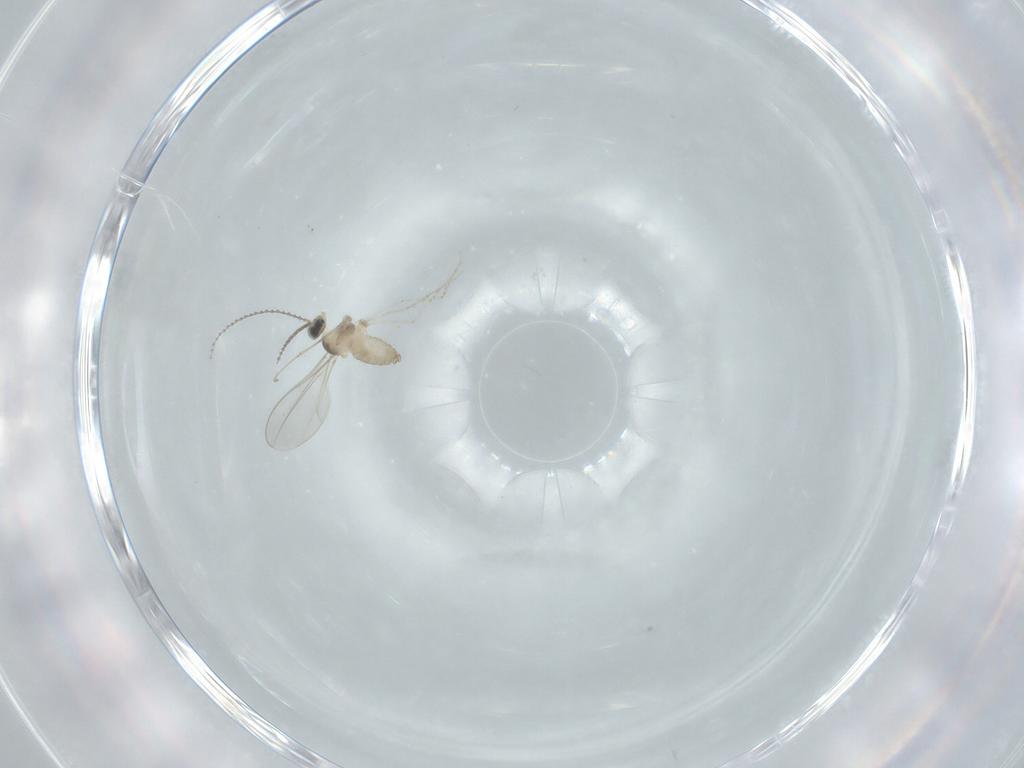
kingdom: Animalia
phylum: Arthropoda
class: Insecta
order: Diptera
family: Cecidomyiidae
